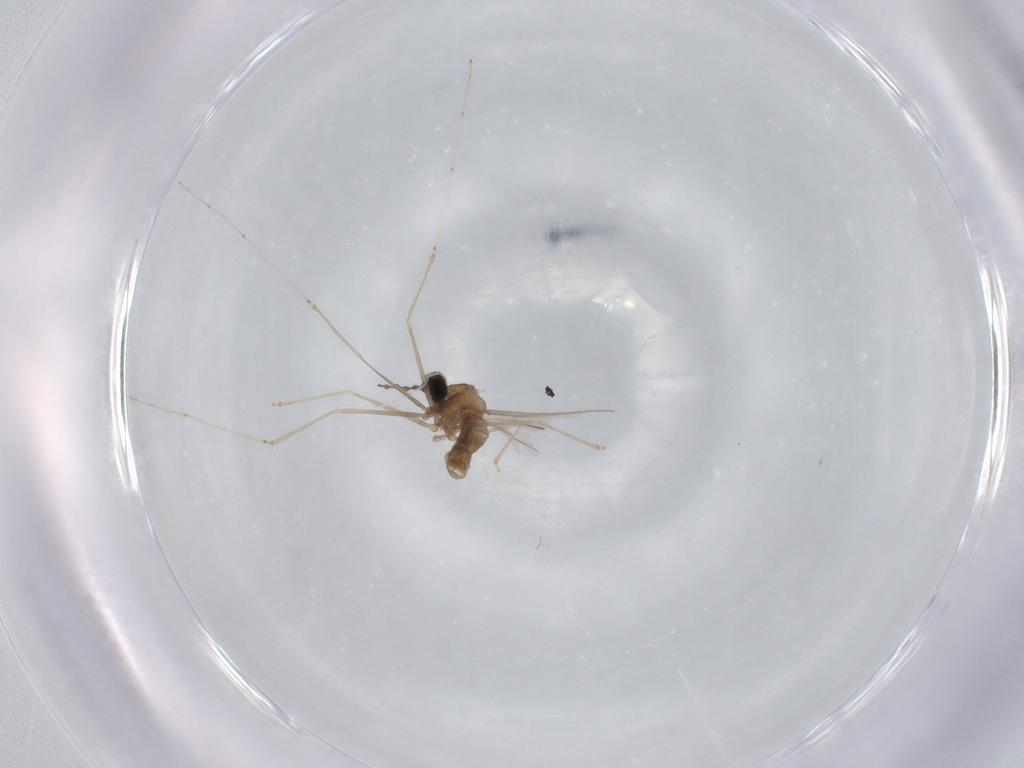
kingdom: Animalia
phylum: Arthropoda
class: Insecta
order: Diptera
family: Cecidomyiidae
